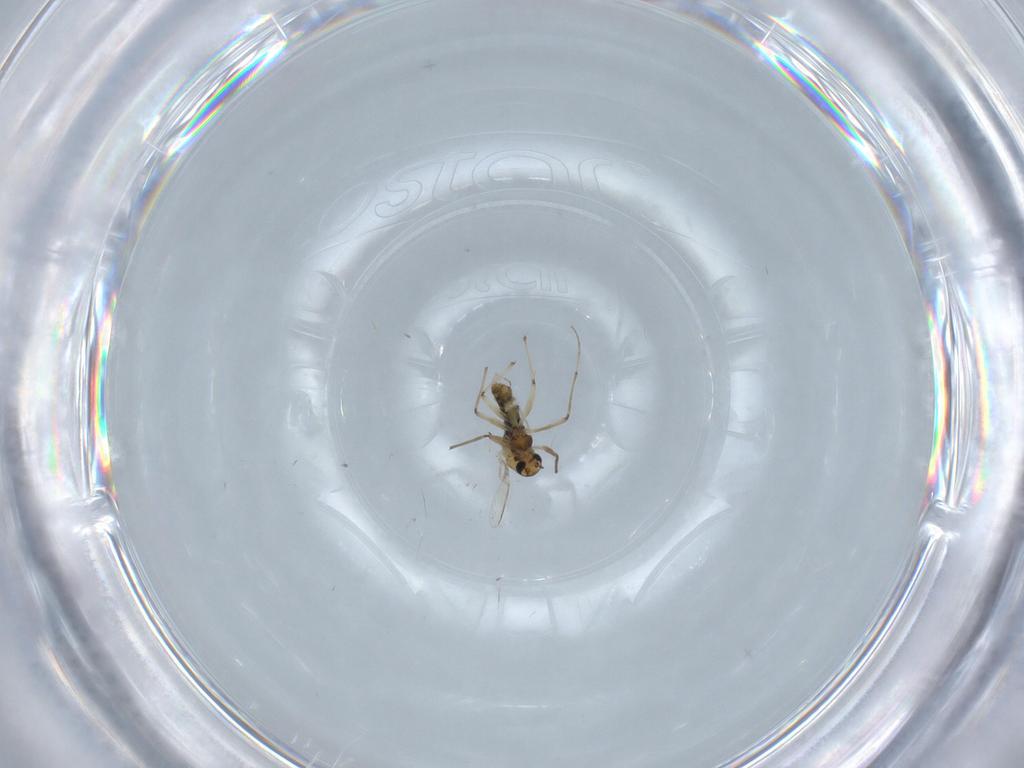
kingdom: Animalia
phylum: Arthropoda
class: Insecta
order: Diptera
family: Chironomidae
